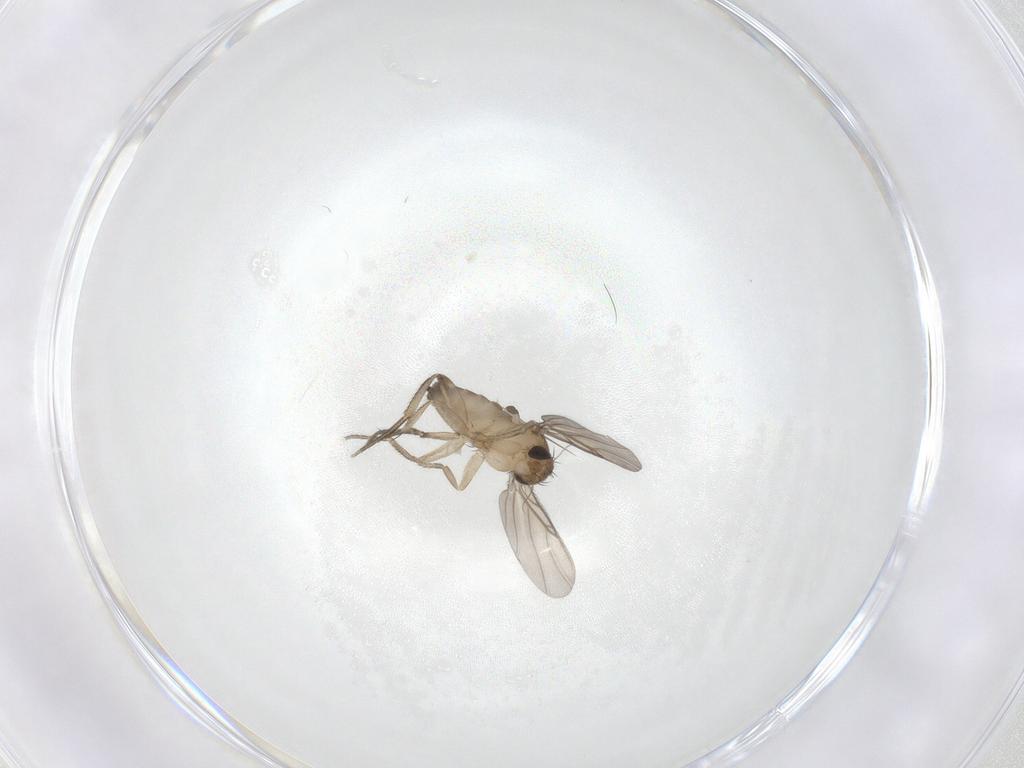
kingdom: Animalia
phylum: Arthropoda
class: Insecta
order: Diptera
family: Phoridae
